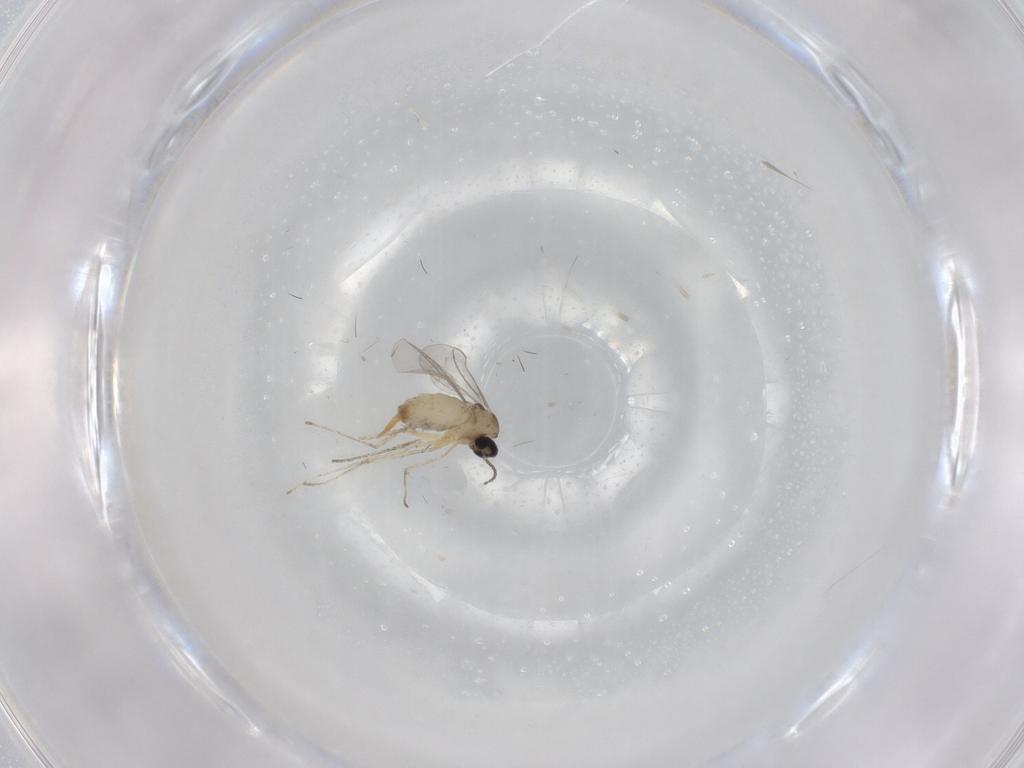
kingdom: Animalia
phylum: Arthropoda
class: Insecta
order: Diptera
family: Cecidomyiidae
